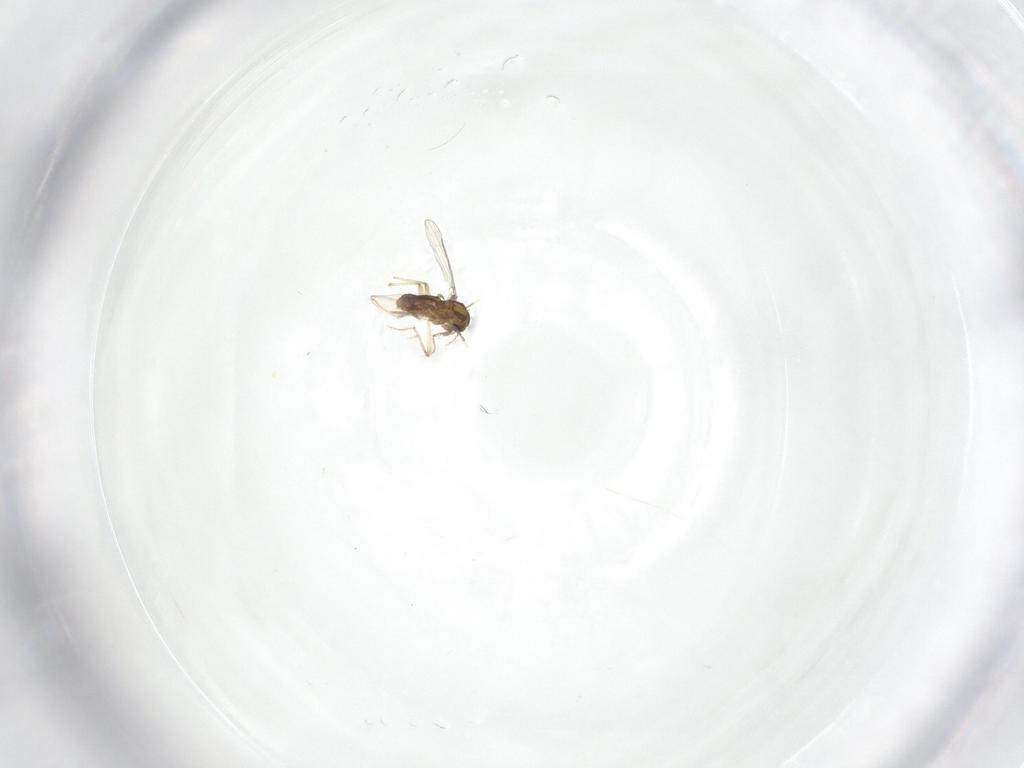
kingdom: Animalia
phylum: Arthropoda
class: Insecta
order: Diptera
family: Chironomidae
